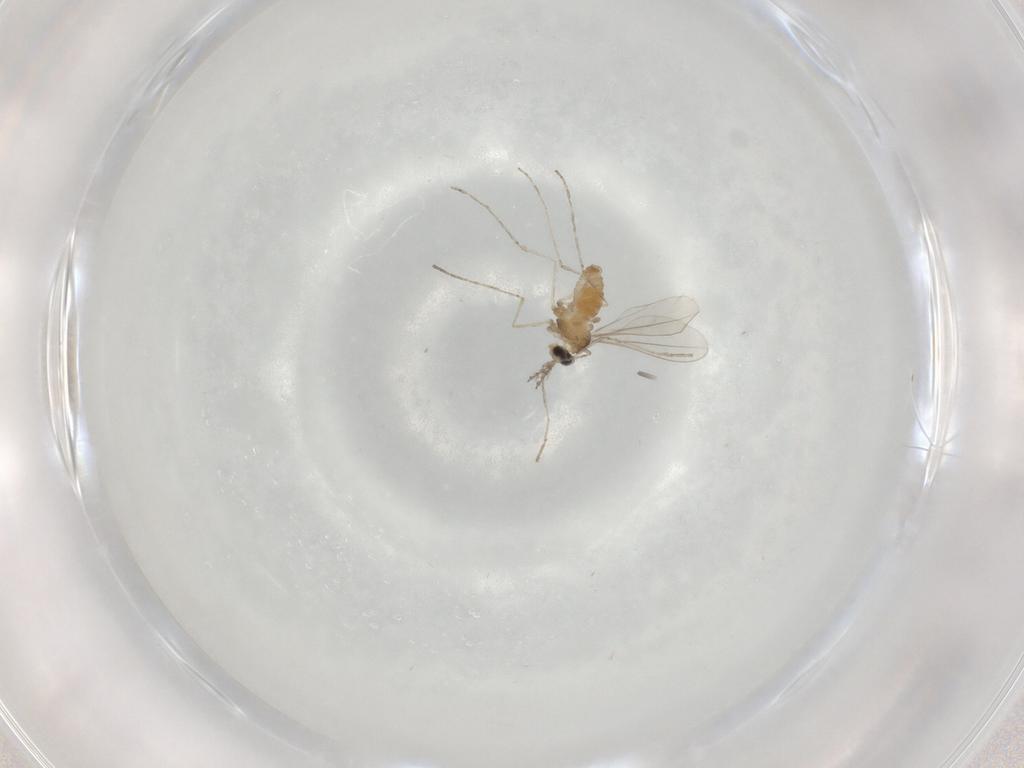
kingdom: Animalia
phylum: Arthropoda
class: Insecta
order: Diptera
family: Cecidomyiidae
